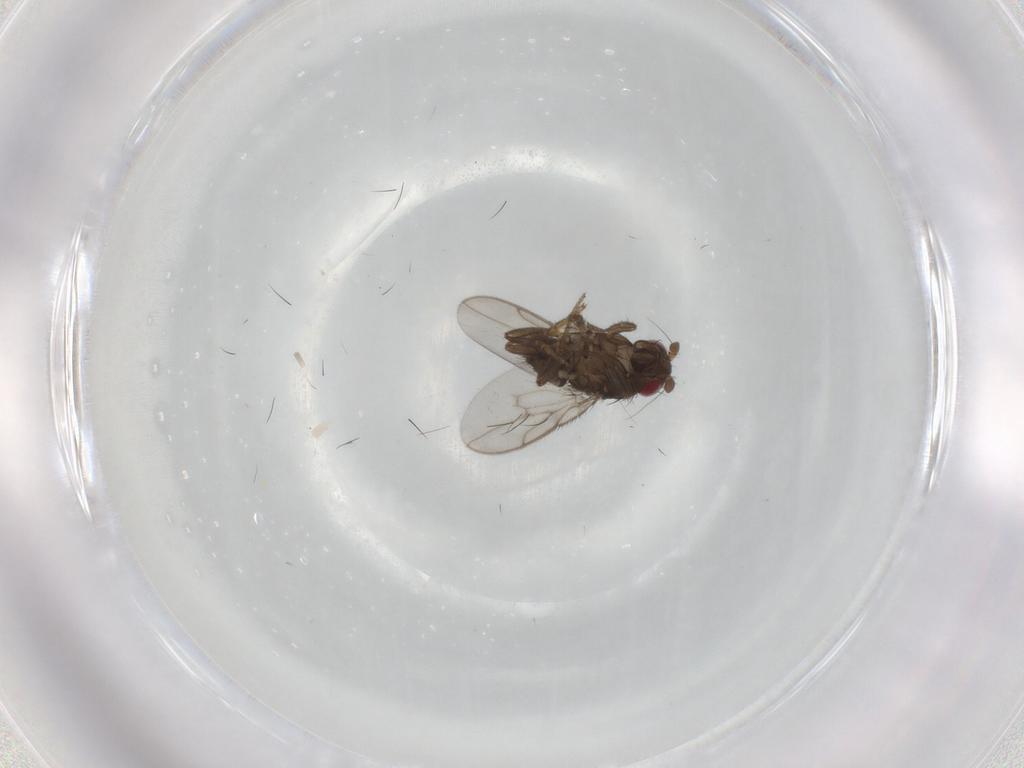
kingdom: Animalia
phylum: Arthropoda
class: Insecta
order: Diptera
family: Sphaeroceridae
